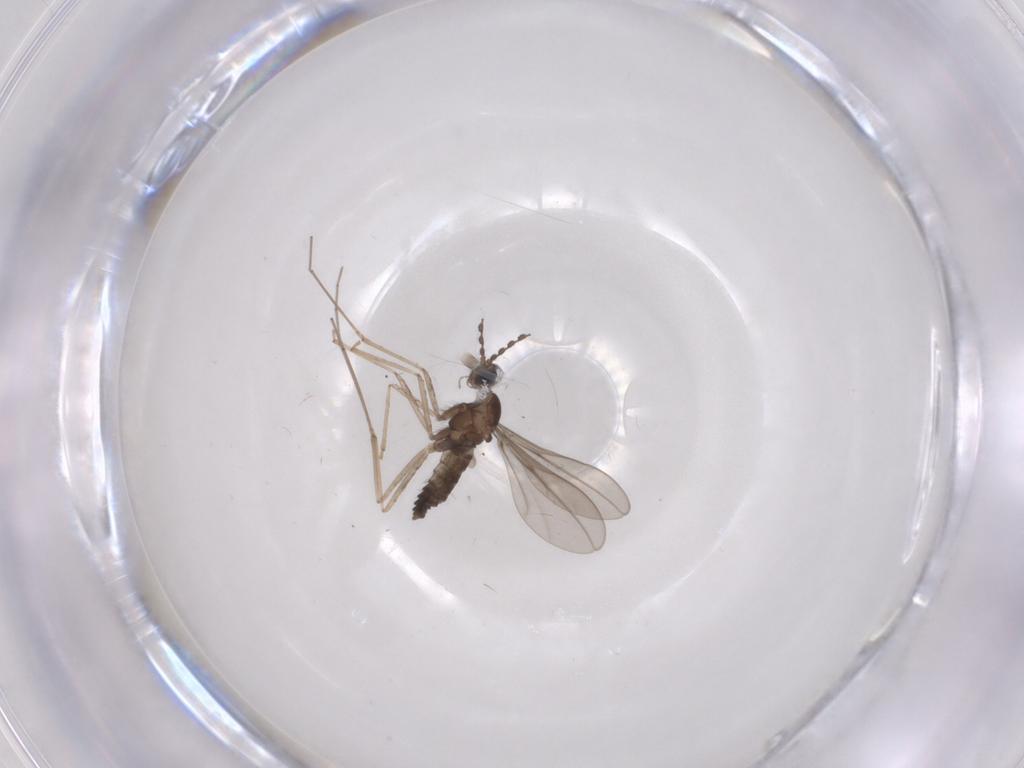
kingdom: Animalia
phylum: Arthropoda
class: Insecta
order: Diptera
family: Cecidomyiidae
